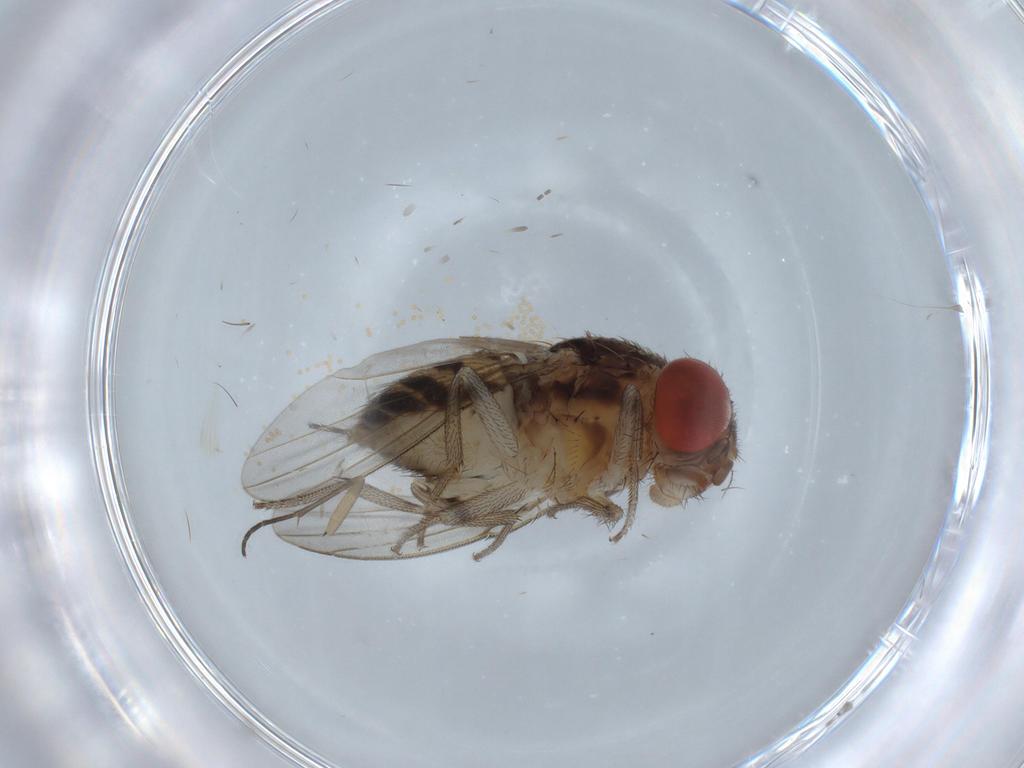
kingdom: Animalia
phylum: Arthropoda
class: Insecta
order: Diptera
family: Drosophilidae
